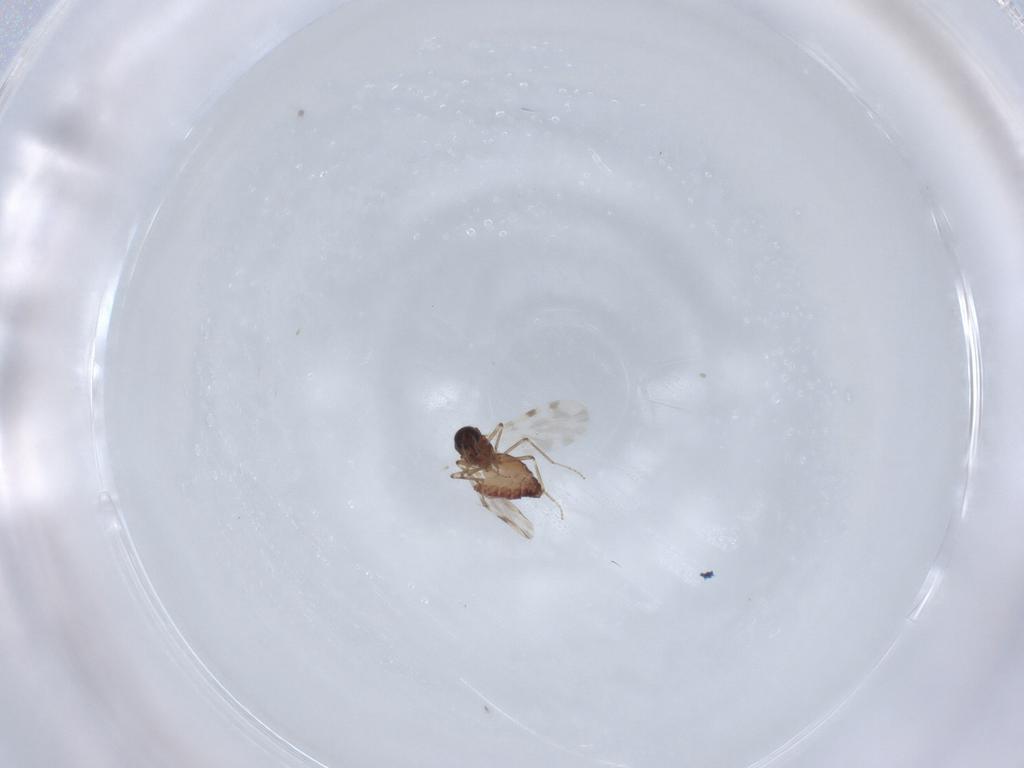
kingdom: Animalia
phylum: Arthropoda
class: Insecta
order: Diptera
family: Ceratopogonidae
